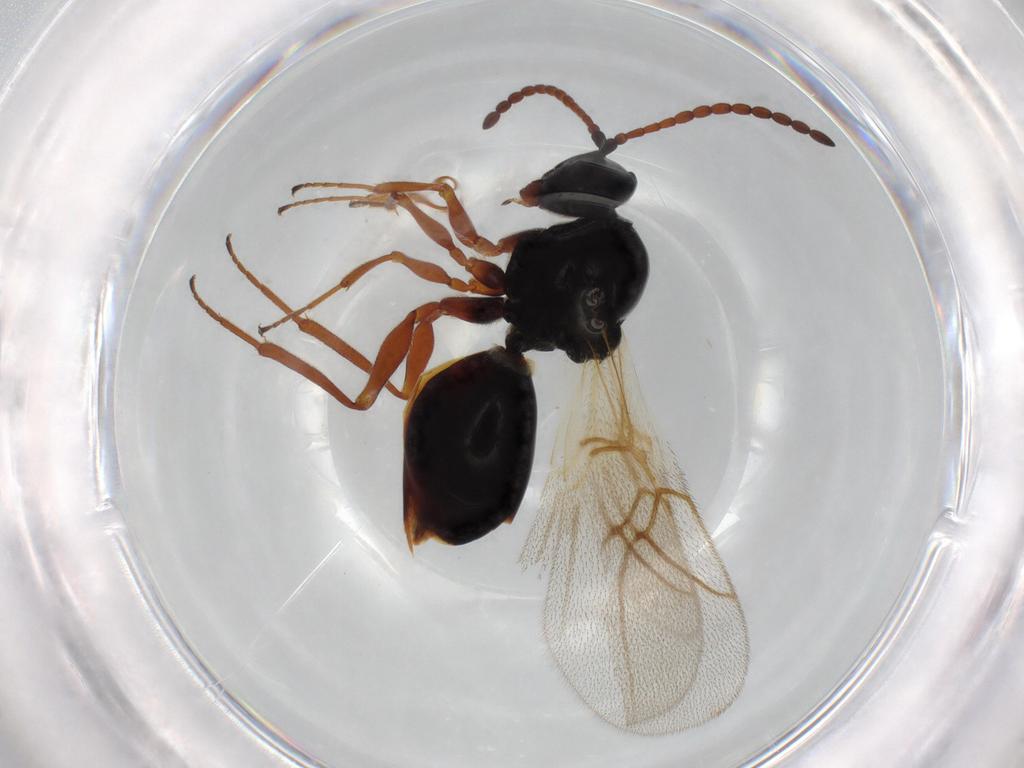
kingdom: Animalia
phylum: Arthropoda
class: Insecta
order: Hymenoptera
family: Figitidae
